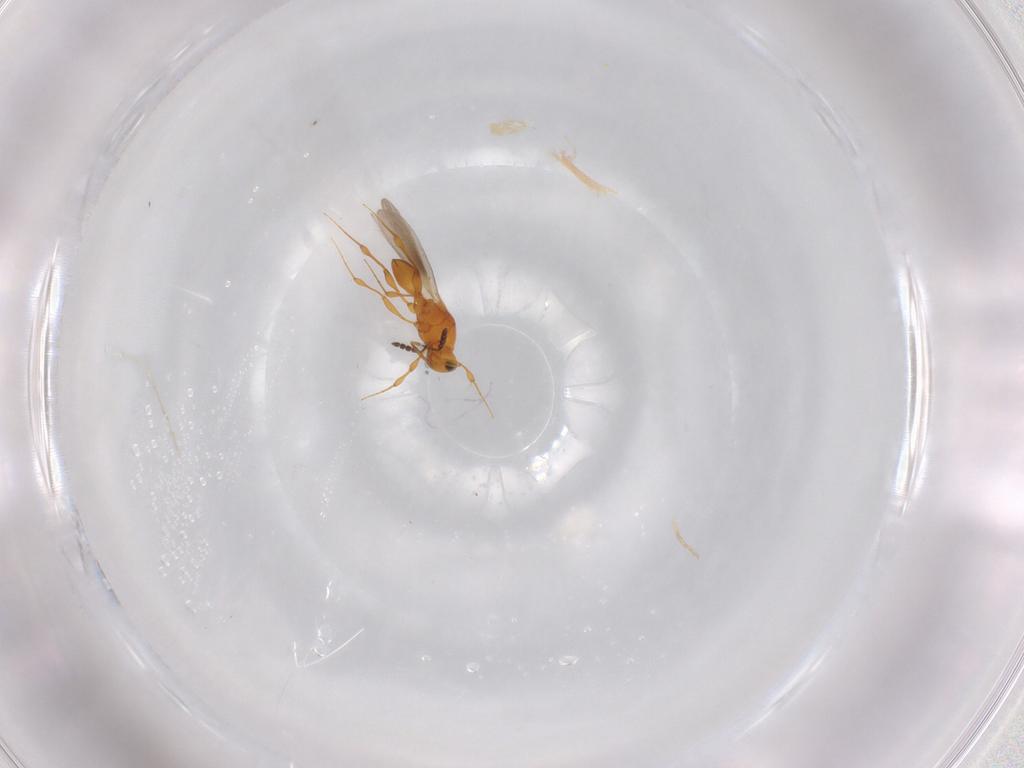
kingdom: Animalia
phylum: Arthropoda
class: Insecta
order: Hymenoptera
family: Platygastridae
